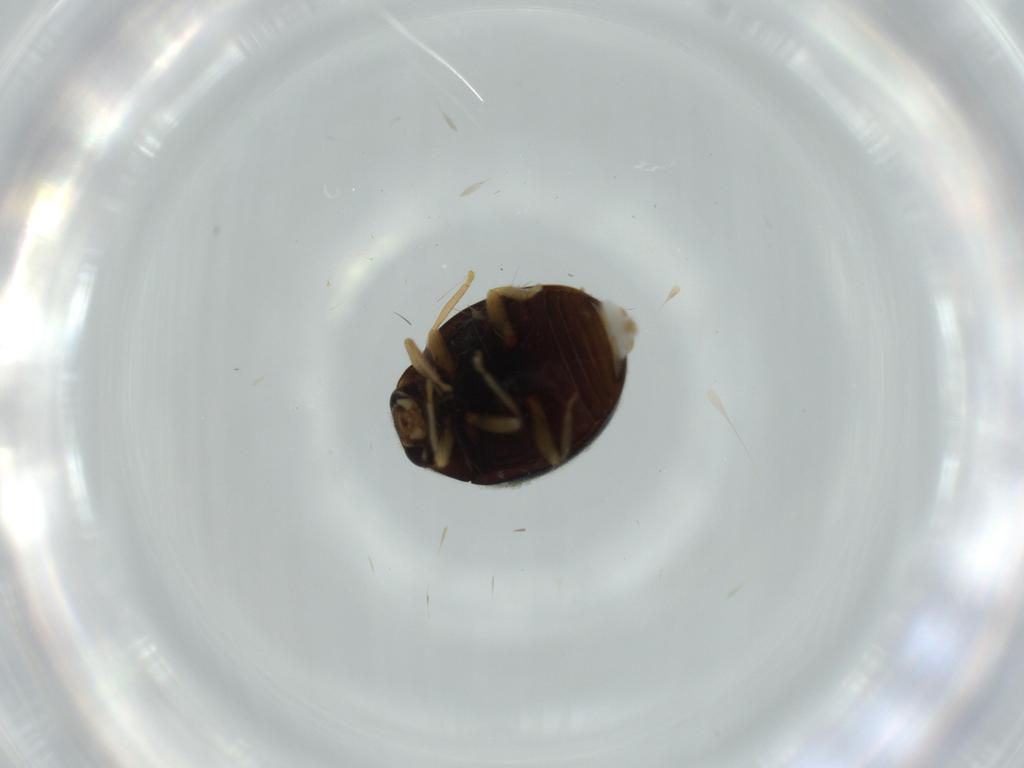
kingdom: Animalia
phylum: Arthropoda
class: Insecta
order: Coleoptera
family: Coccinellidae
